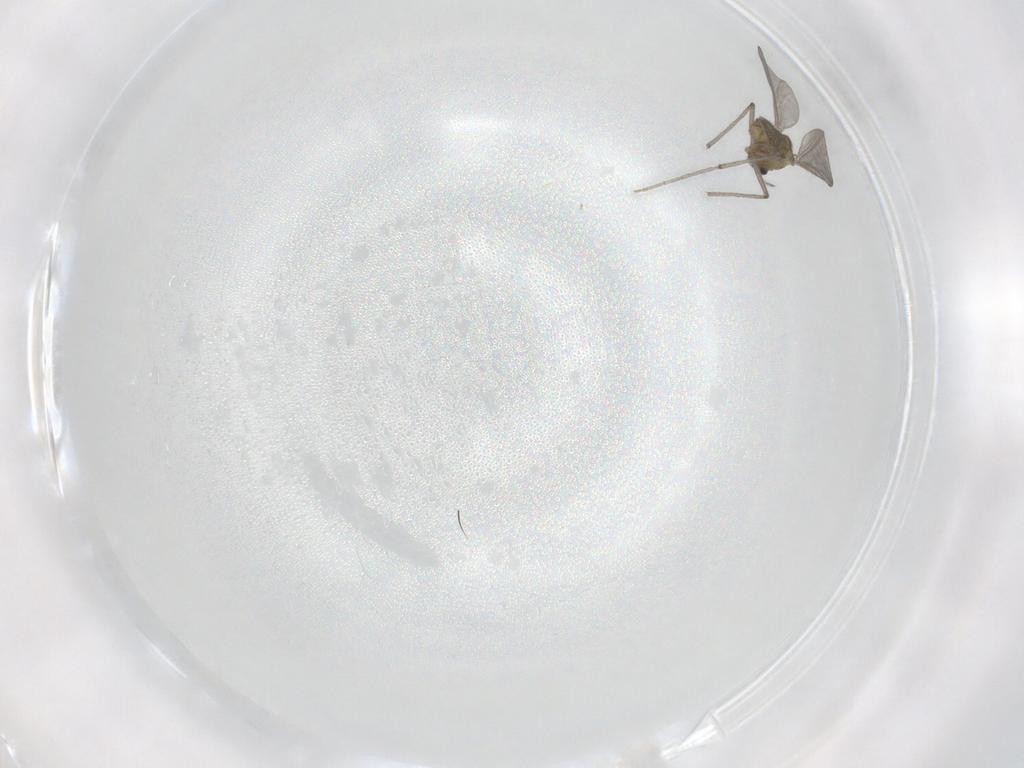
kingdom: Animalia
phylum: Arthropoda
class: Insecta
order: Diptera
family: Chironomidae
